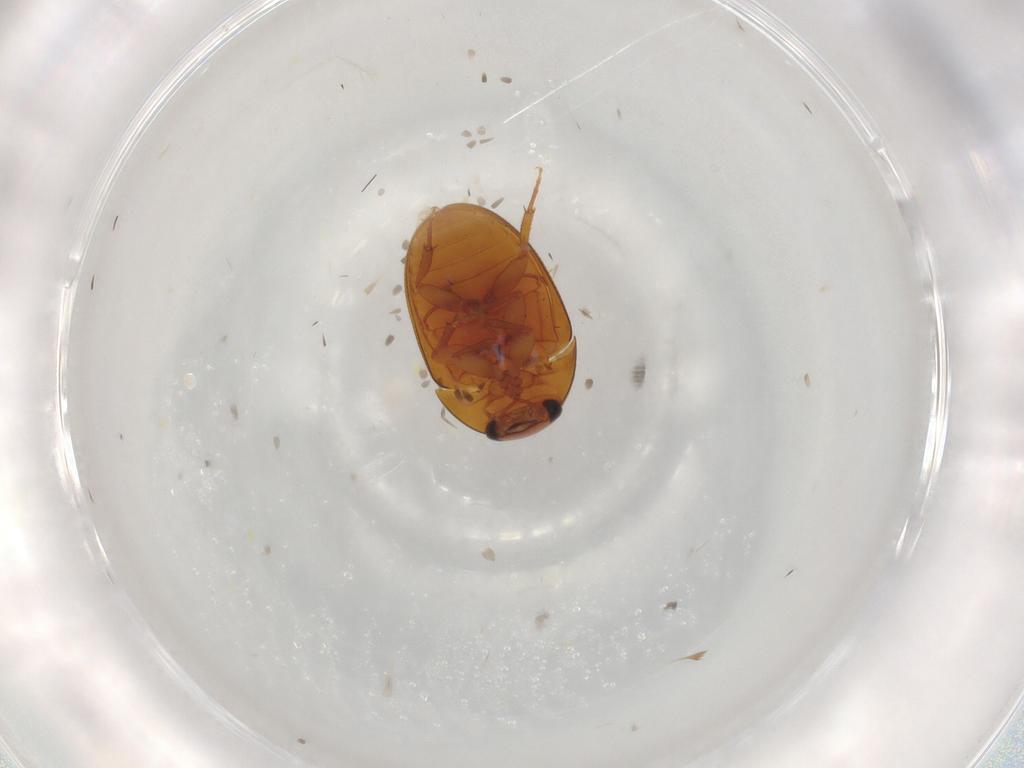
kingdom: Animalia
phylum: Arthropoda
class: Insecta
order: Coleoptera
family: Phalacridae
